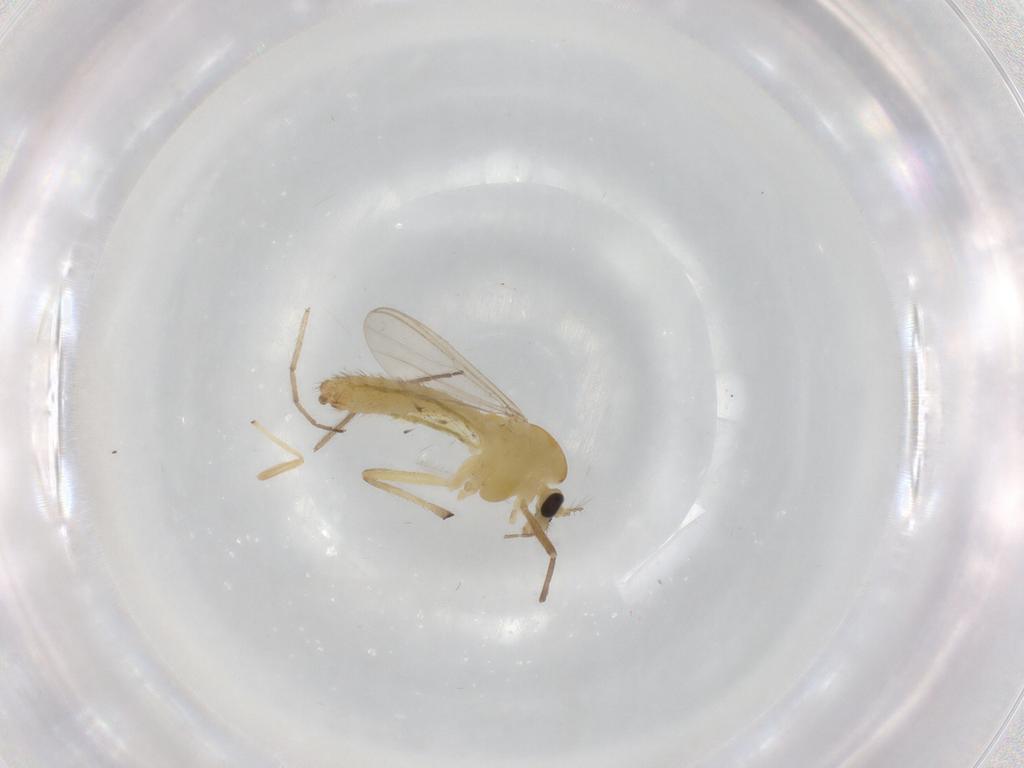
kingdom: Animalia
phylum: Arthropoda
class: Insecta
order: Diptera
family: Chironomidae
